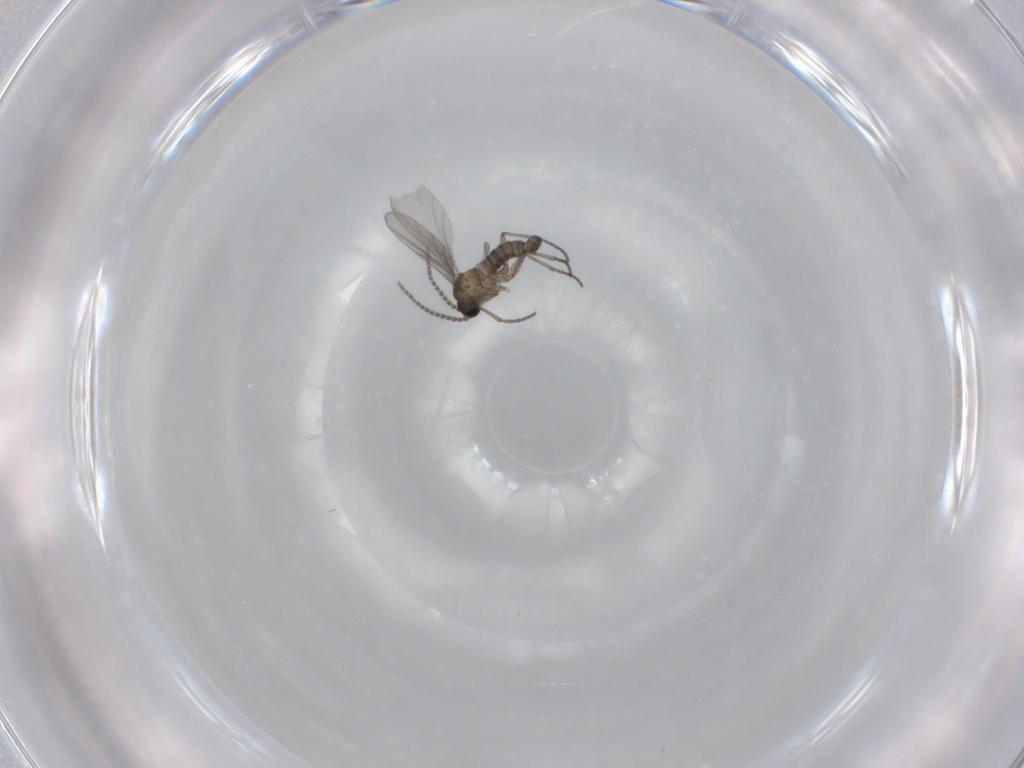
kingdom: Animalia
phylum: Arthropoda
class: Insecta
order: Diptera
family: Sciaridae
